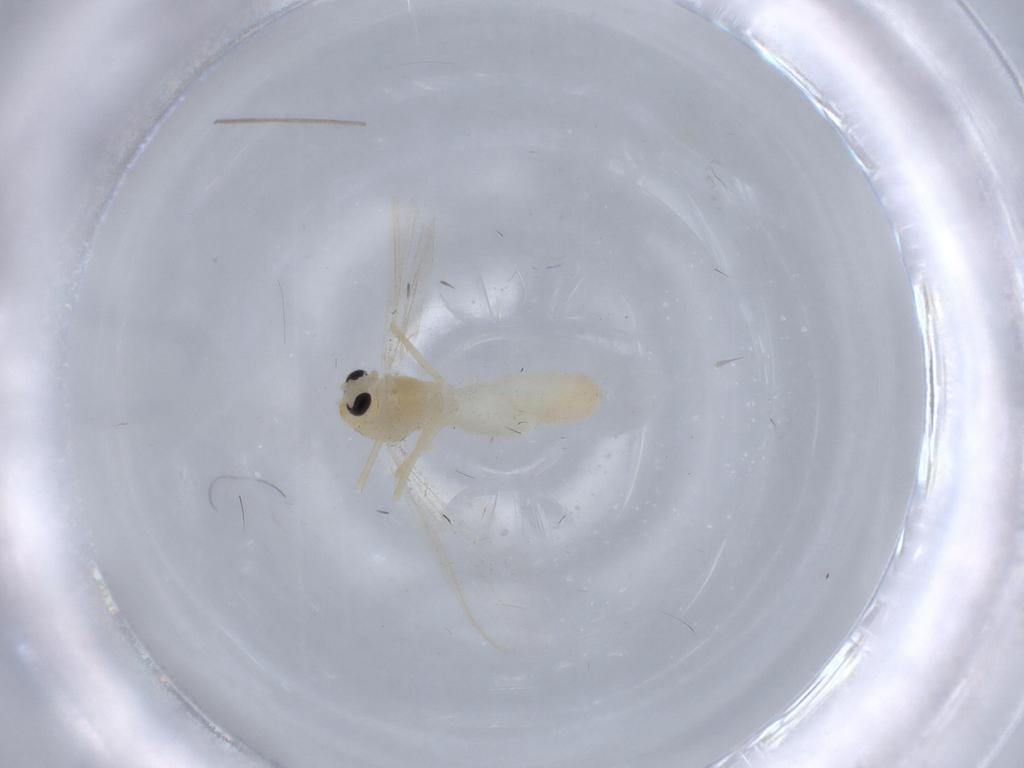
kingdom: Animalia
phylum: Arthropoda
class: Insecta
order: Diptera
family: Chironomidae
